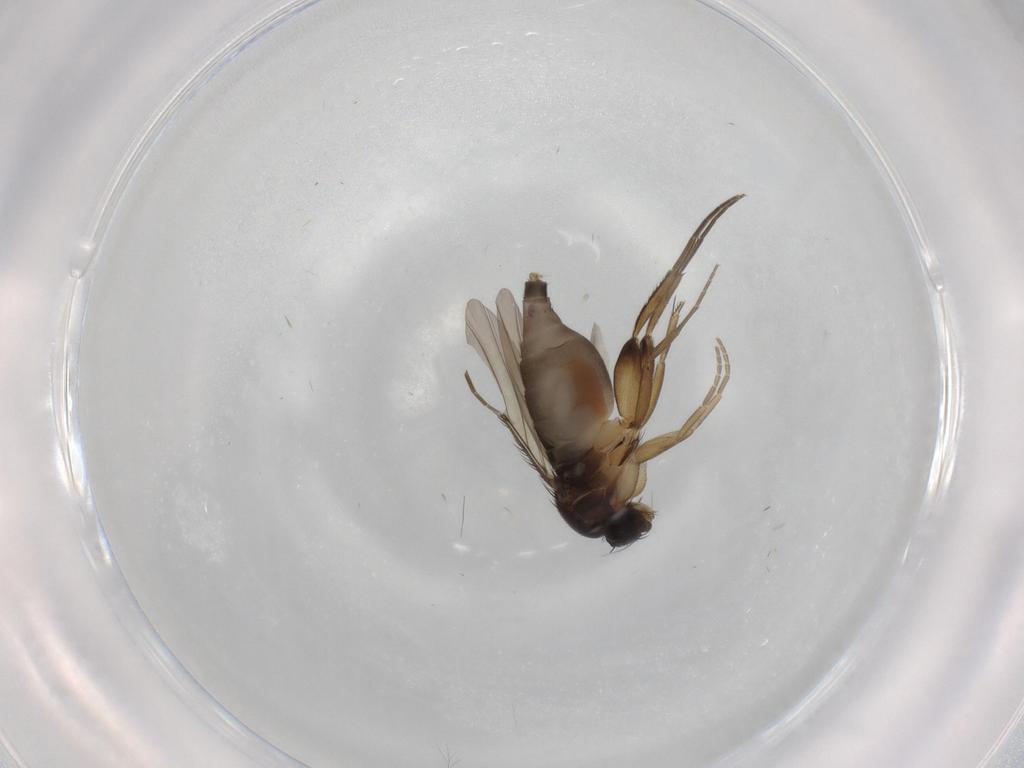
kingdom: Animalia
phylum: Arthropoda
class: Insecta
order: Diptera
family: Phoridae
